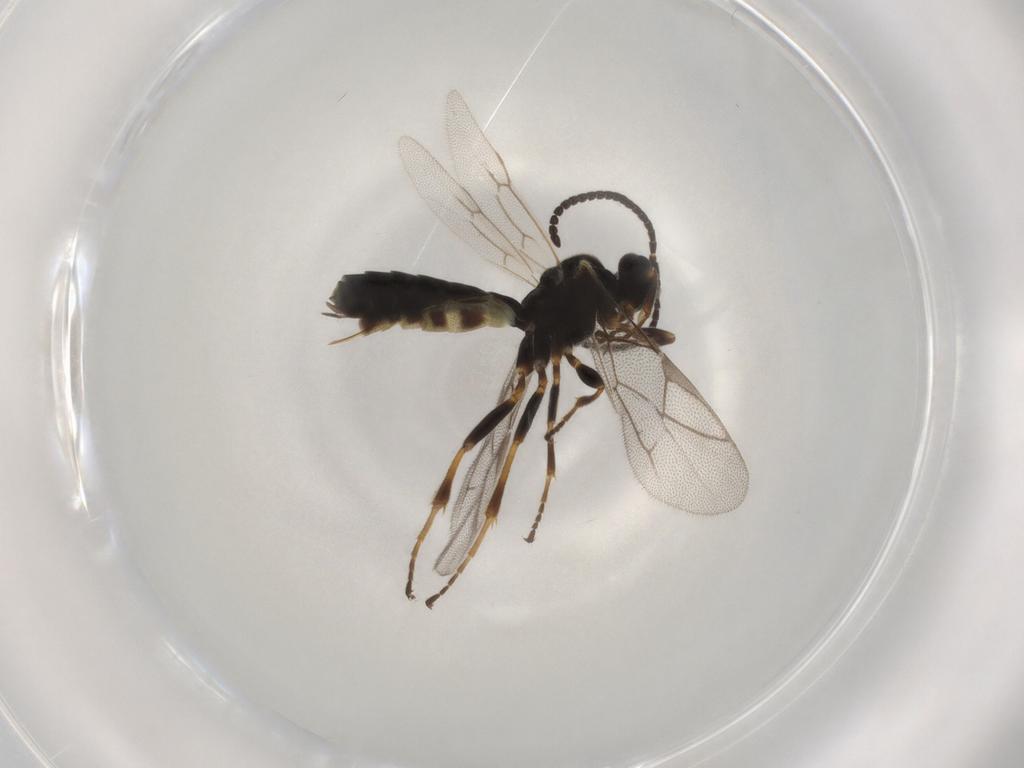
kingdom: Animalia
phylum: Arthropoda
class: Insecta
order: Hymenoptera
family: Ichneumonidae
